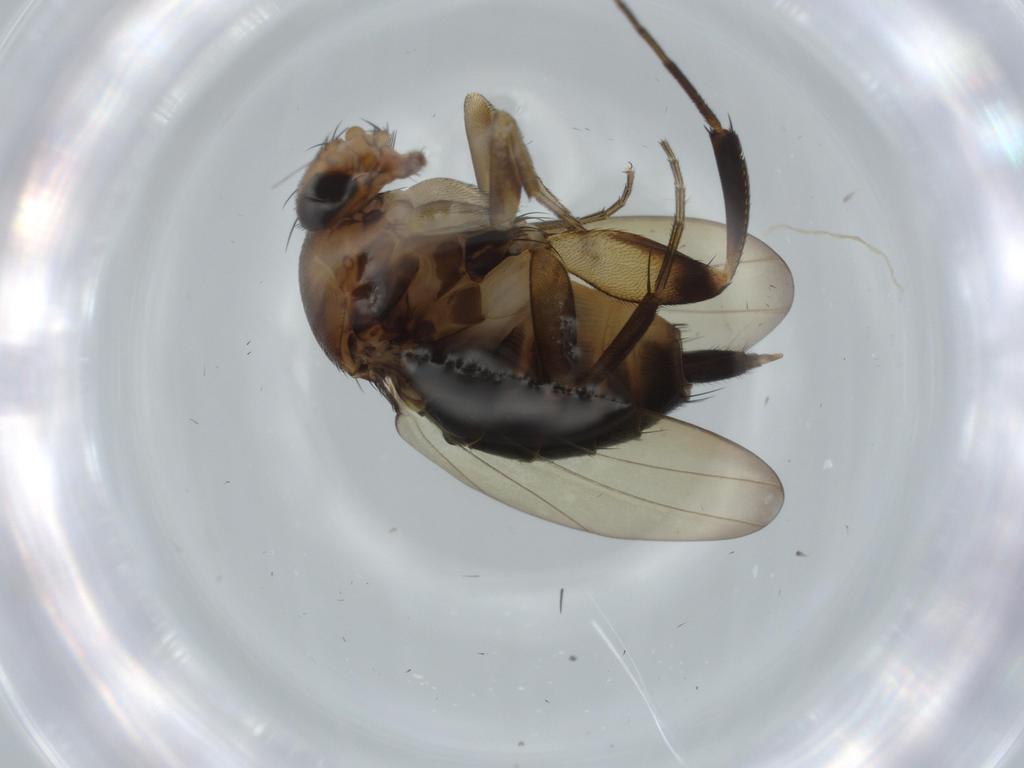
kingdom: Animalia
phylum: Arthropoda
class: Insecta
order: Diptera
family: Phoridae
